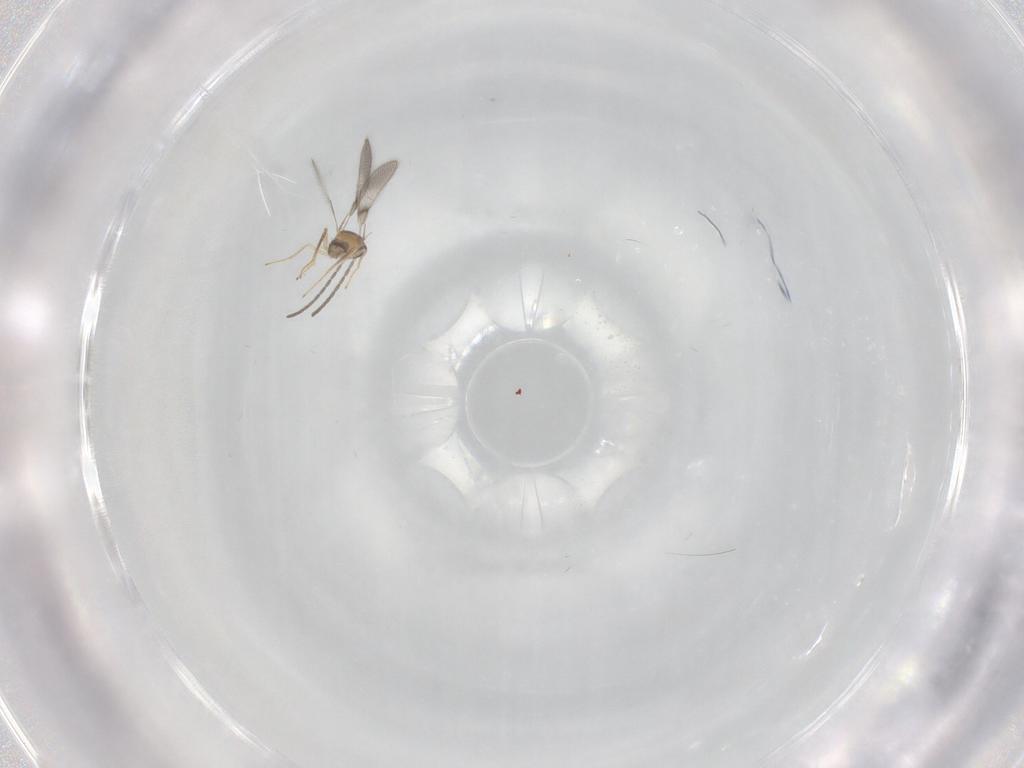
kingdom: Animalia
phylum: Arthropoda
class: Insecta
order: Hymenoptera
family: Mymaridae
